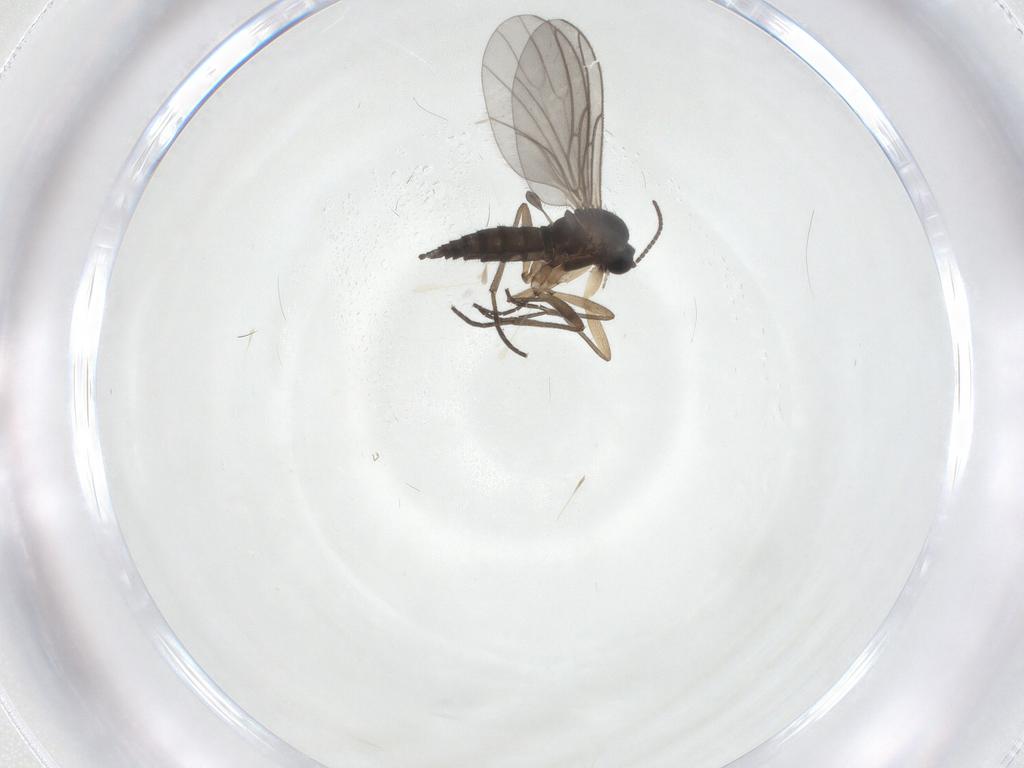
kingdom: Animalia
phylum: Arthropoda
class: Insecta
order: Diptera
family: Sciaridae
